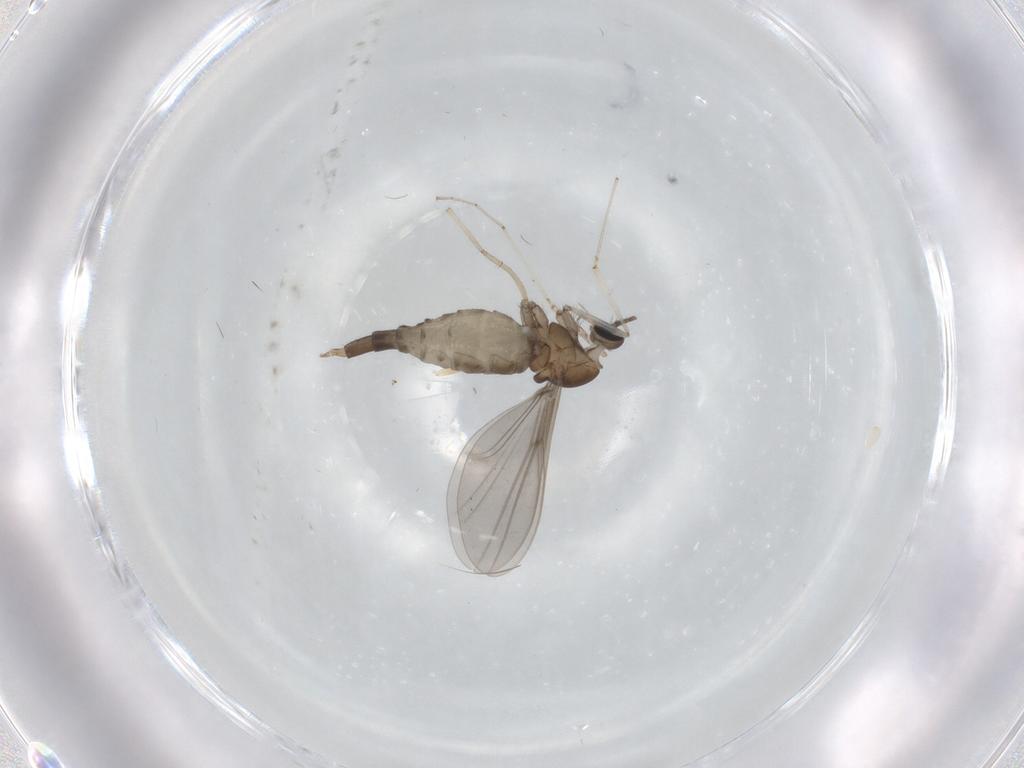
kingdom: Animalia
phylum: Arthropoda
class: Insecta
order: Diptera
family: Cecidomyiidae
